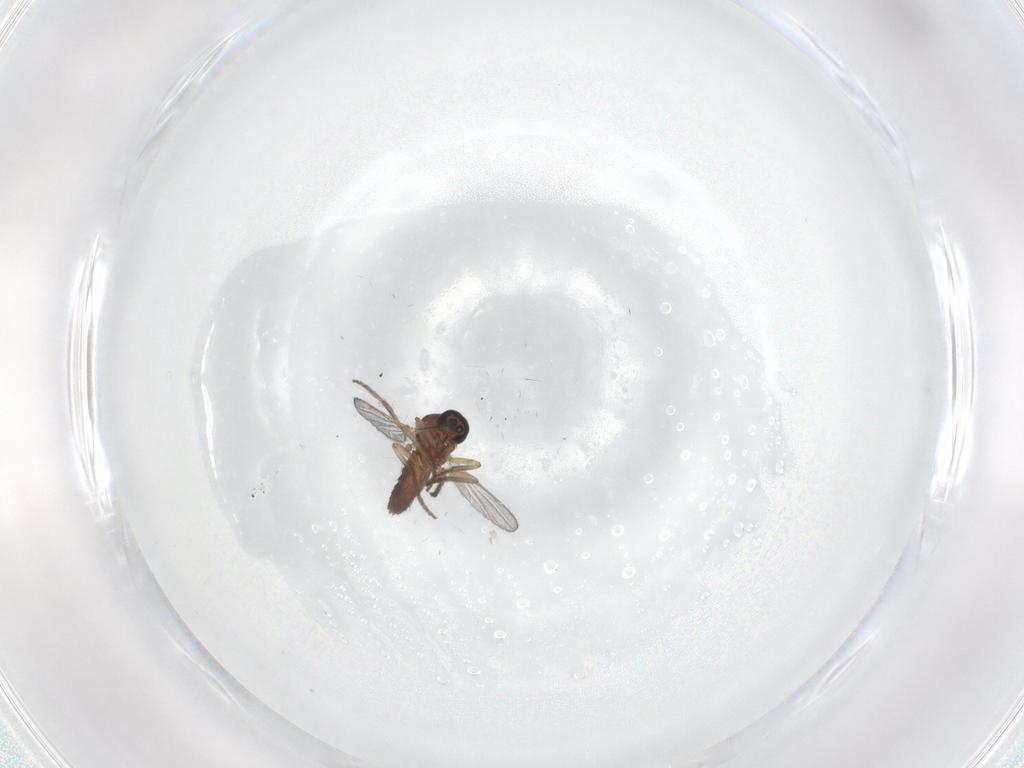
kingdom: Animalia
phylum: Arthropoda
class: Insecta
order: Diptera
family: Ceratopogonidae
